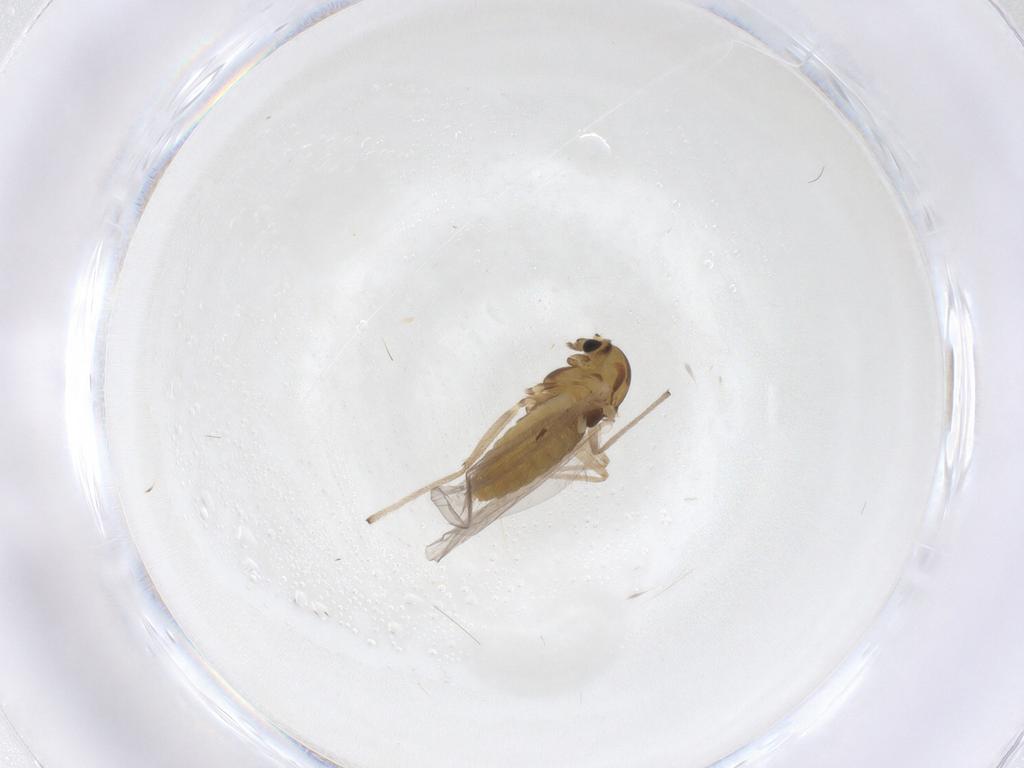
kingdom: Animalia
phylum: Arthropoda
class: Insecta
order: Diptera
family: Chironomidae
